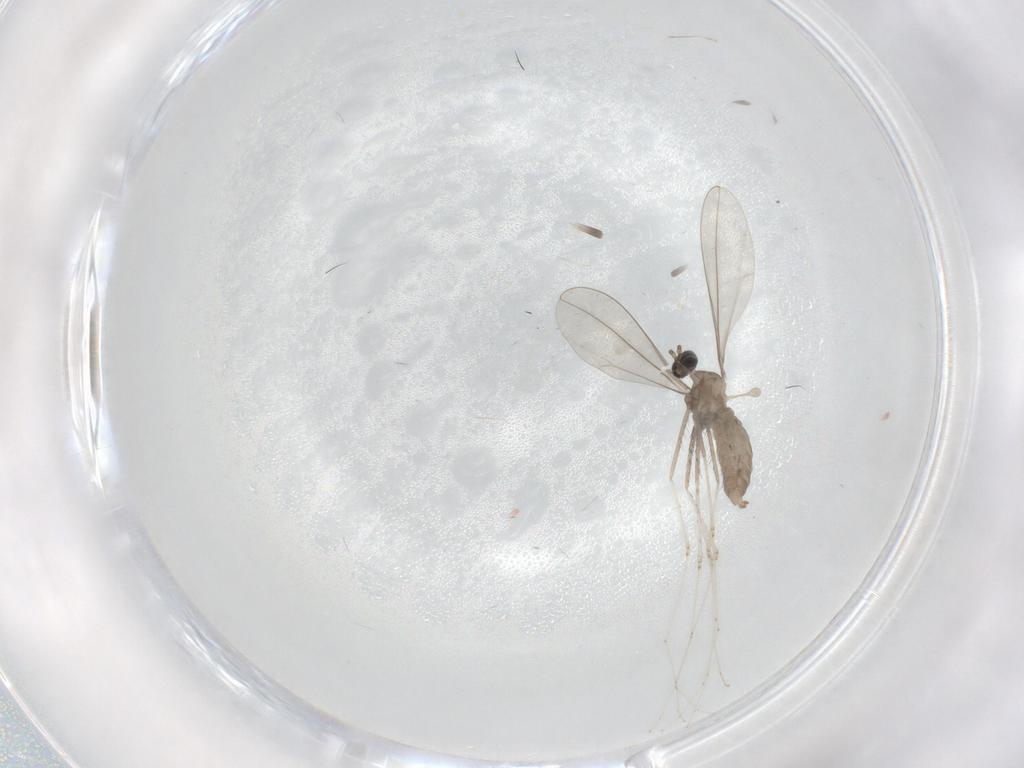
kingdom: Animalia
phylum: Arthropoda
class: Insecta
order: Diptera
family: Cecidomyiidae
